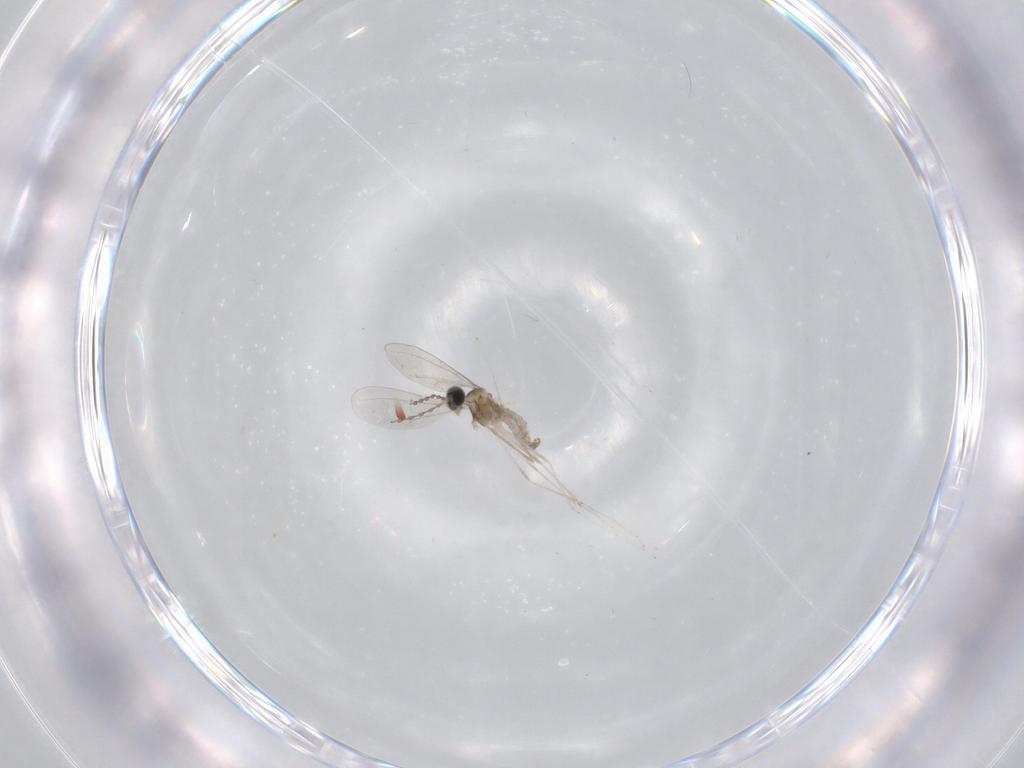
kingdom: Animalia
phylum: Arthropoda
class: Insecta
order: Diptera
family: Cecidomyiidae
